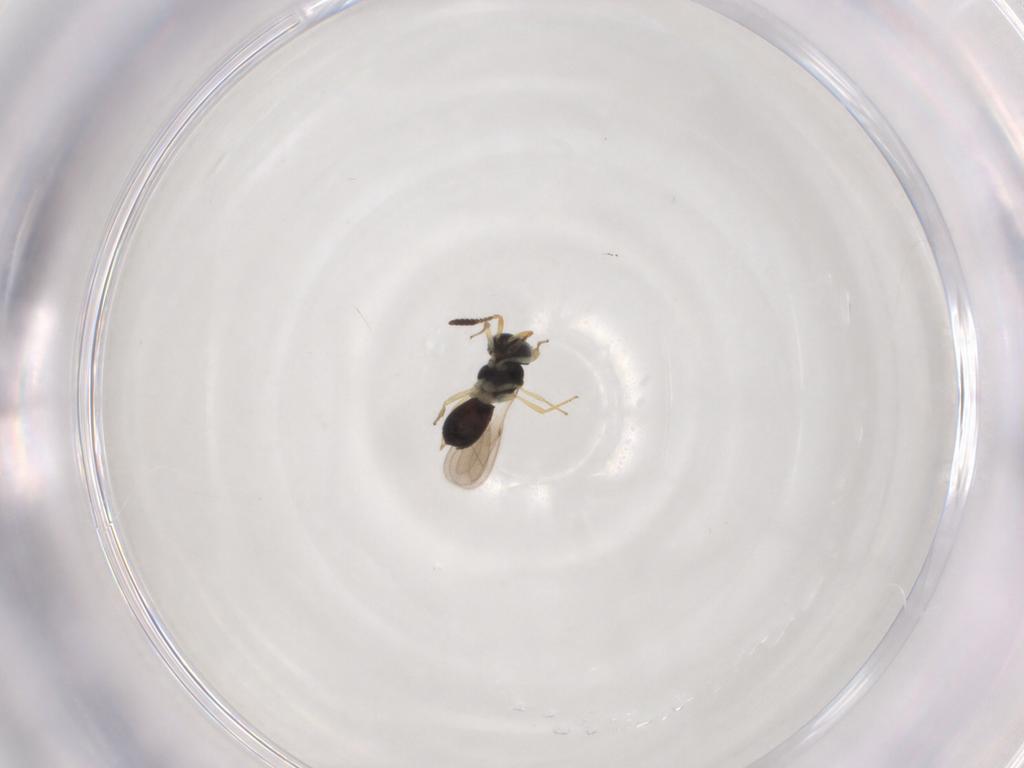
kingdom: Animalia
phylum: Arthropoda
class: Insecta
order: Hymenoptera
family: Scelionidae
